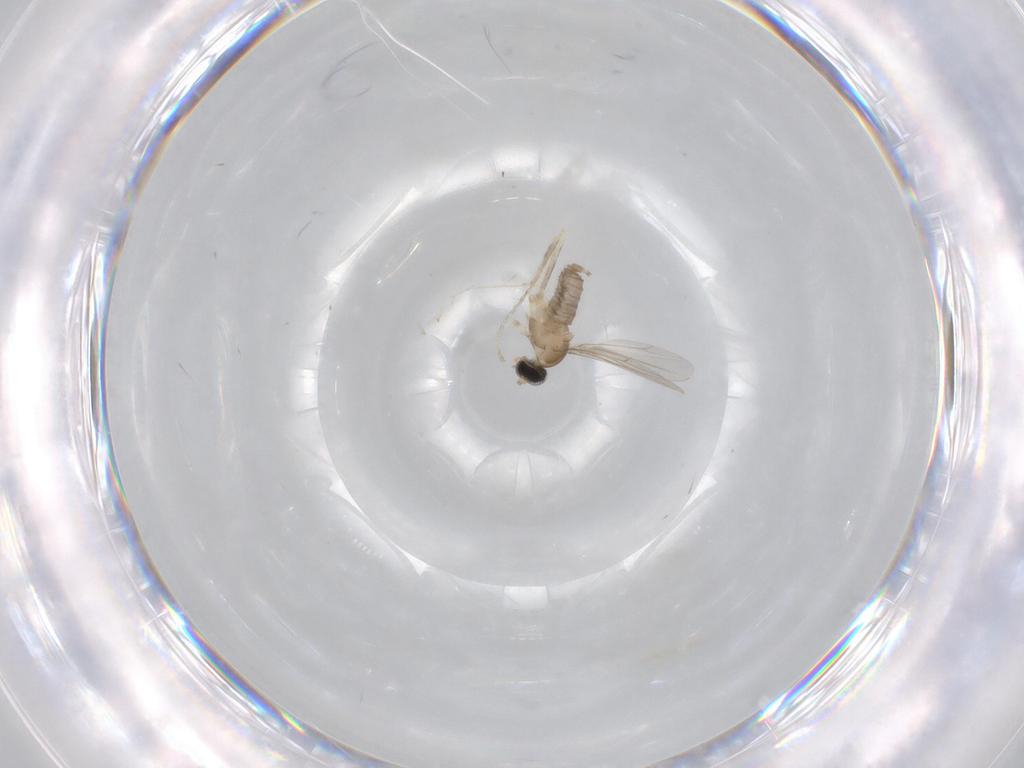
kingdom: Animalia
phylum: Arthropoda
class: Insecta
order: Diptera
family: Cecidomyiidae
